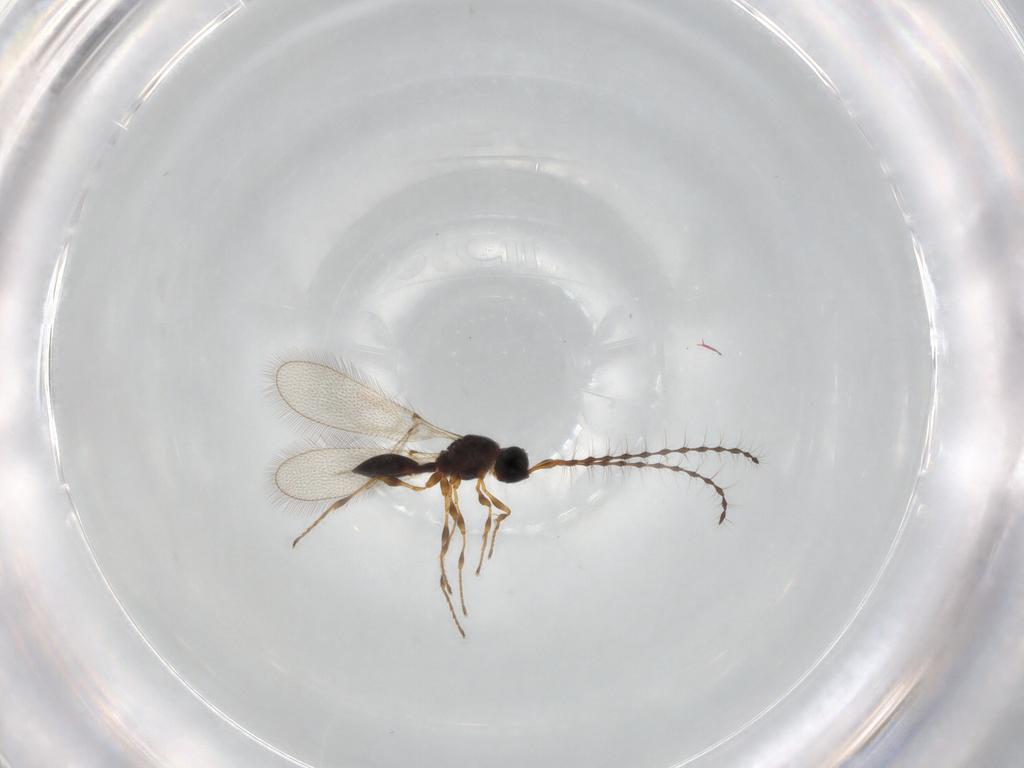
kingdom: Animalia
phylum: Arthropoda
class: Insecta
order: Hymenoptera
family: Diapriidae
